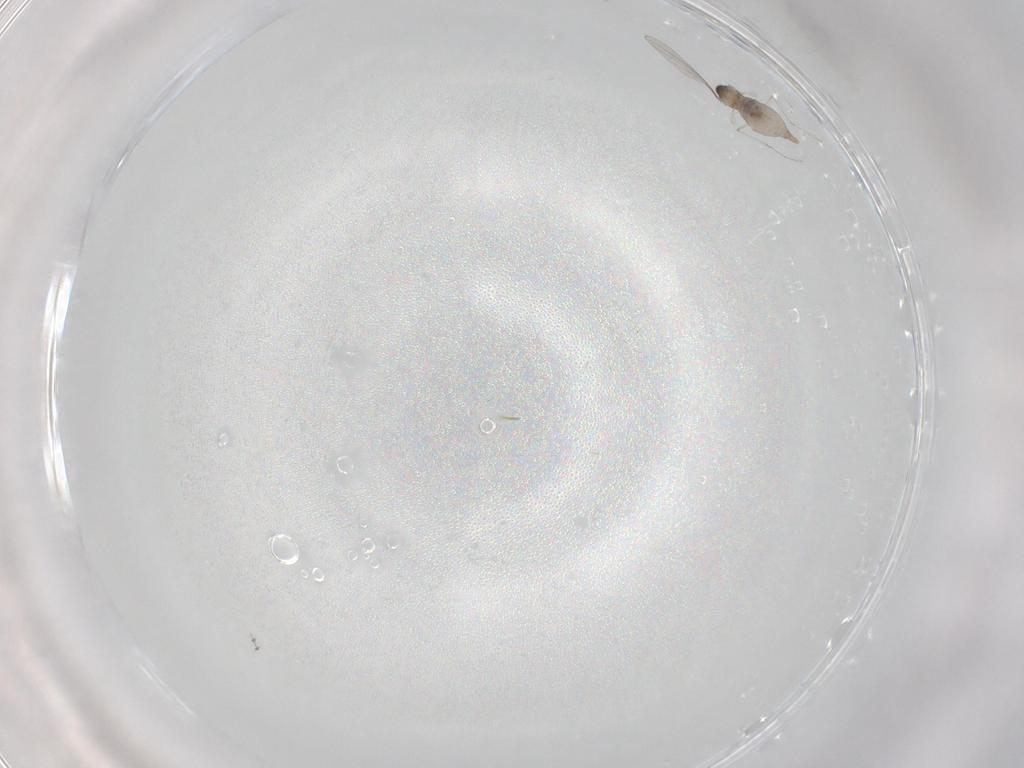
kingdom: Animalia
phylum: Arthropoda
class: Insecta
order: Diptera
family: Cecidomyiidae
